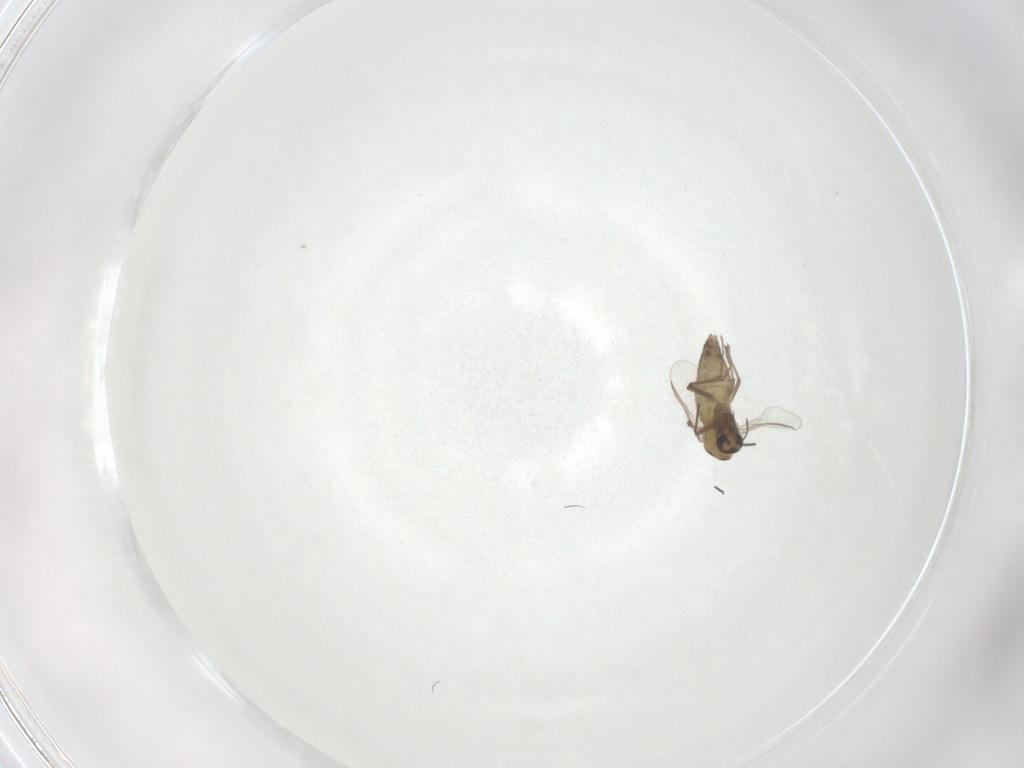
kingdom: Animalia
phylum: Arthropoda
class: Insecta
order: Diptera
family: Chironomidae
